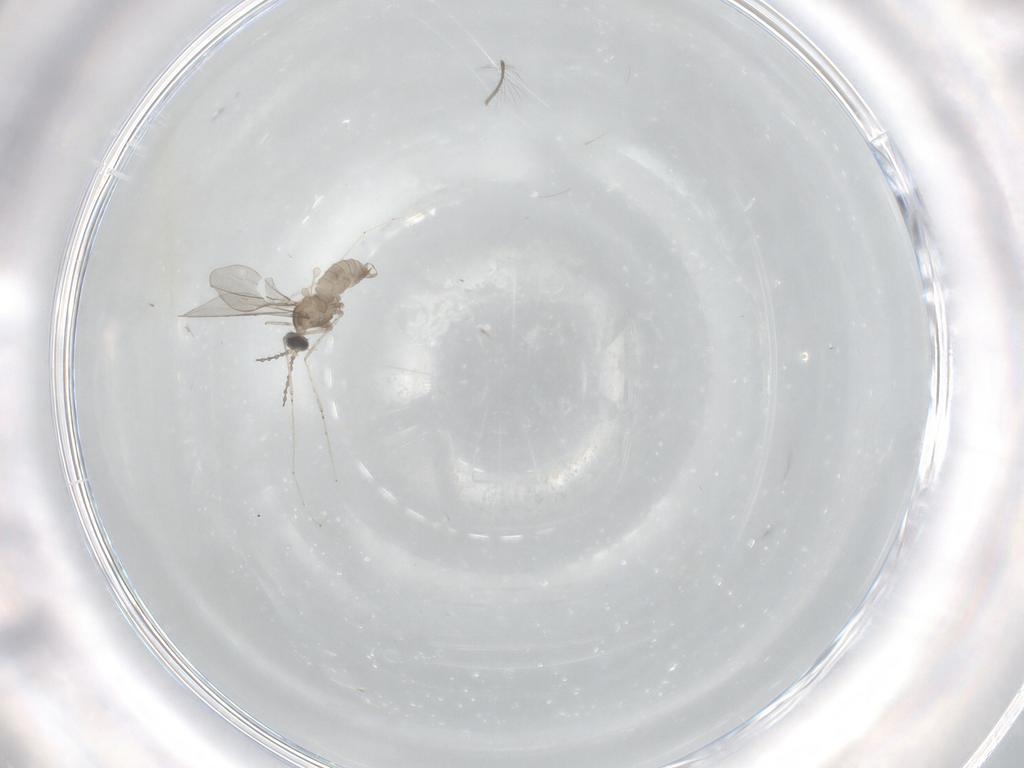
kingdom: Animalia
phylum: Arthropoda
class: Insecta
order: Diptera
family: Cecidomyiidae
